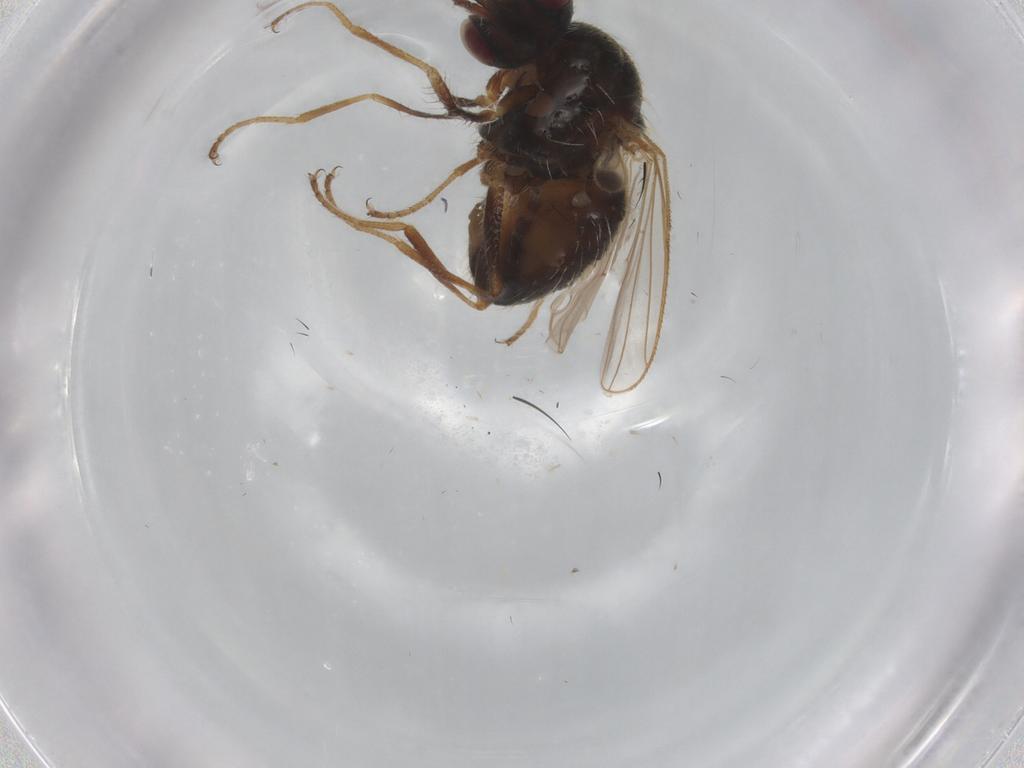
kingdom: Animalia
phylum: Arthropoda
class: Insecta
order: Diptera
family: Muscidae
